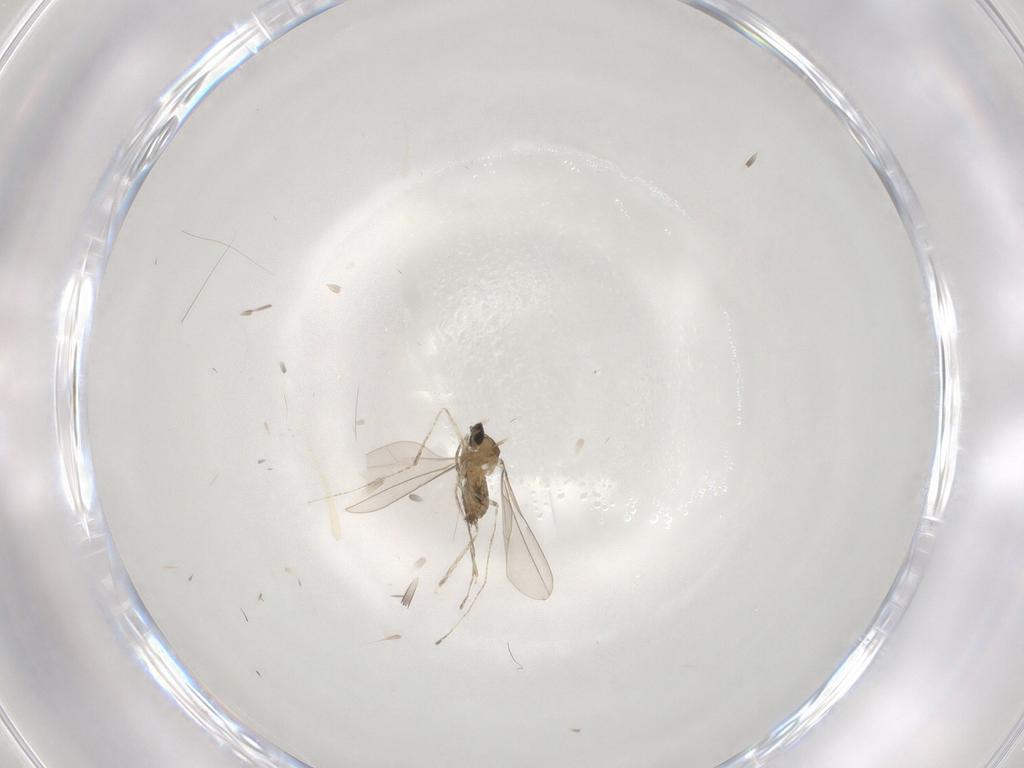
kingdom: Animalia
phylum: Arthropoda
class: Insecta
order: Diptera
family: Cecidomyiidae
